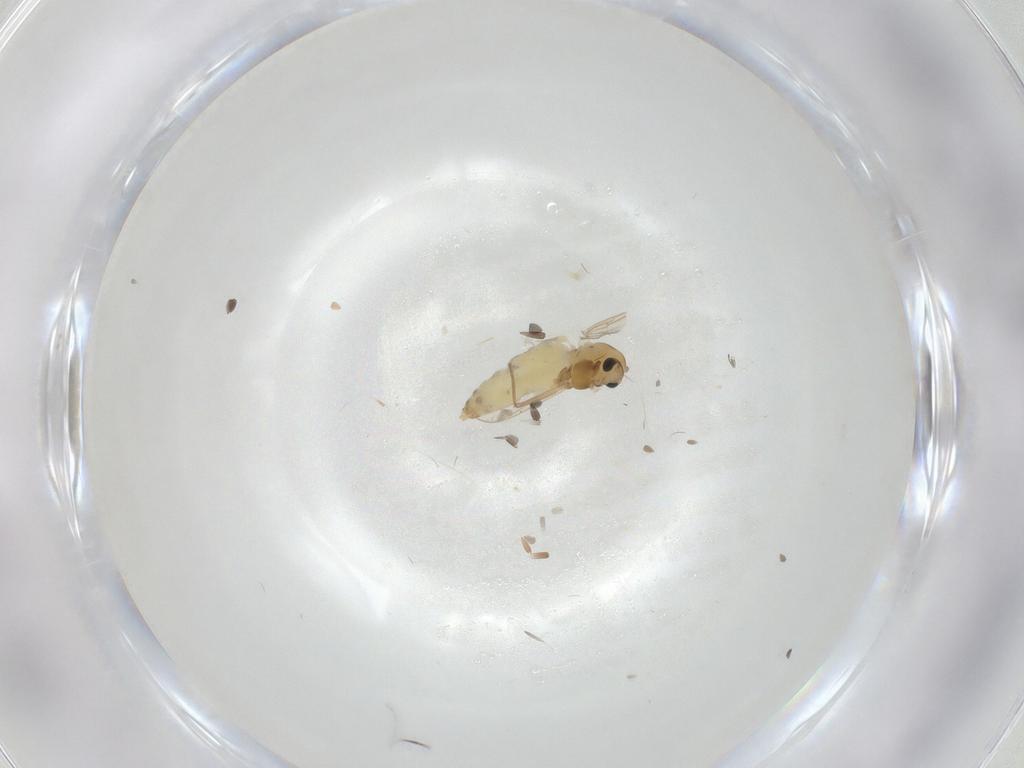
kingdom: Animalia
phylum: Arthropoda
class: Insecta
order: Diptera
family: Chironomidae
